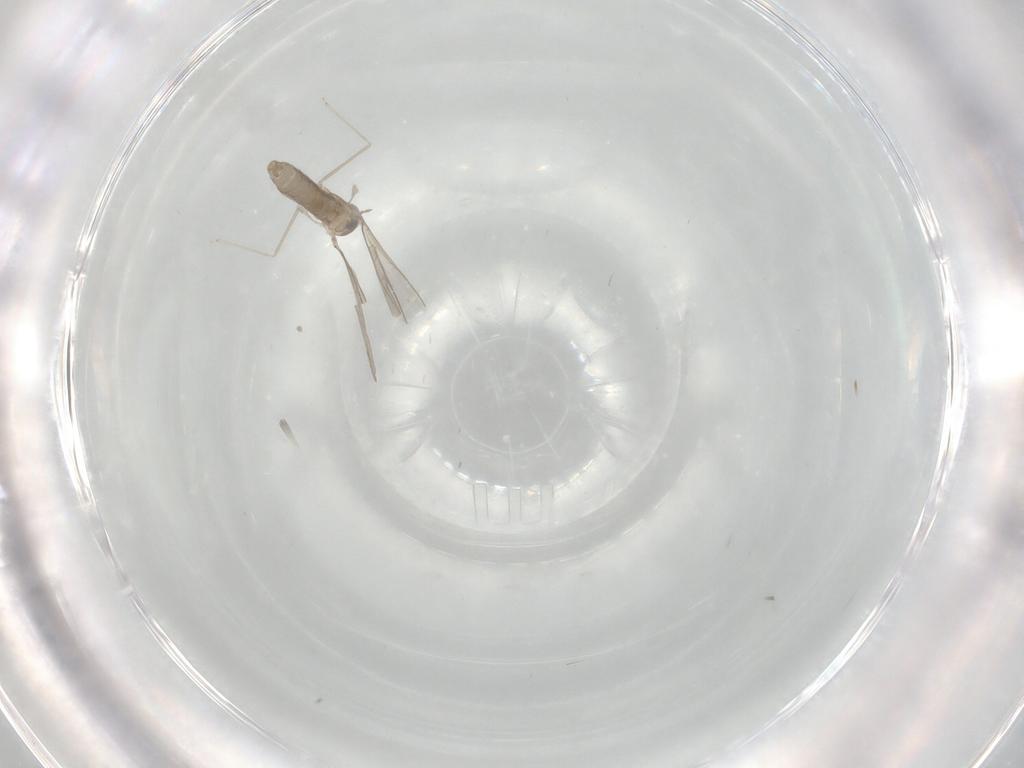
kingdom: Animalia
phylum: Arthropoda
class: Insecta
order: Diptera
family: Cecidomyiidae
